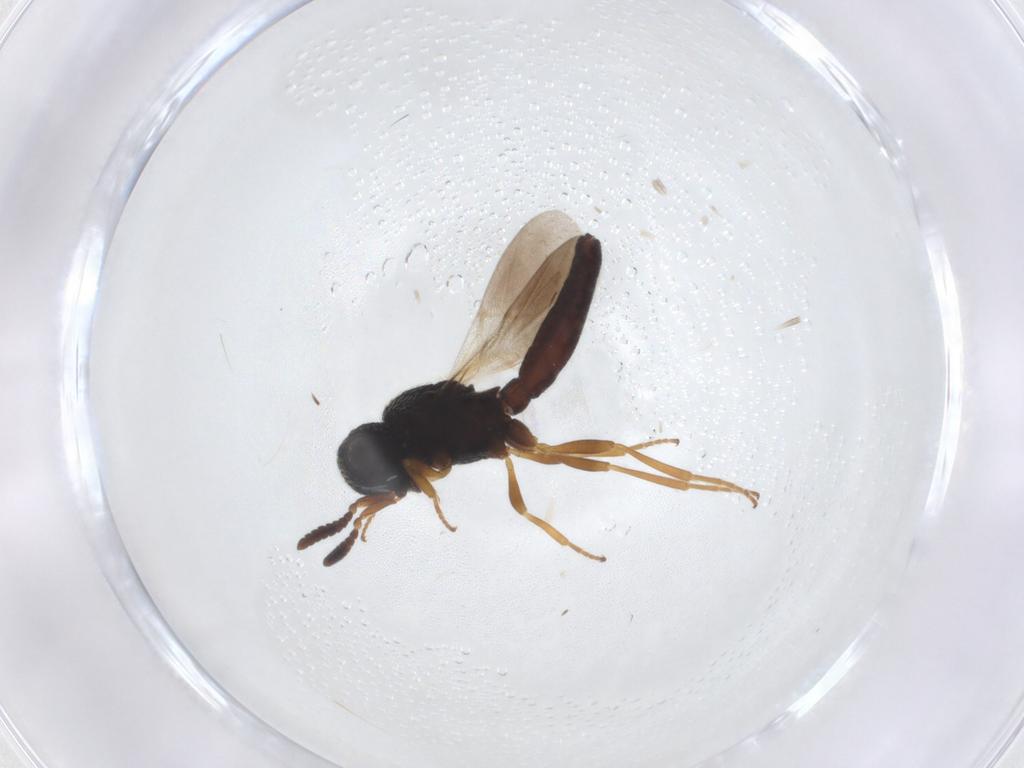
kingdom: Animalia
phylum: Arthropoda
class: Insecta
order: Hymenoptera
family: Scelionidae
